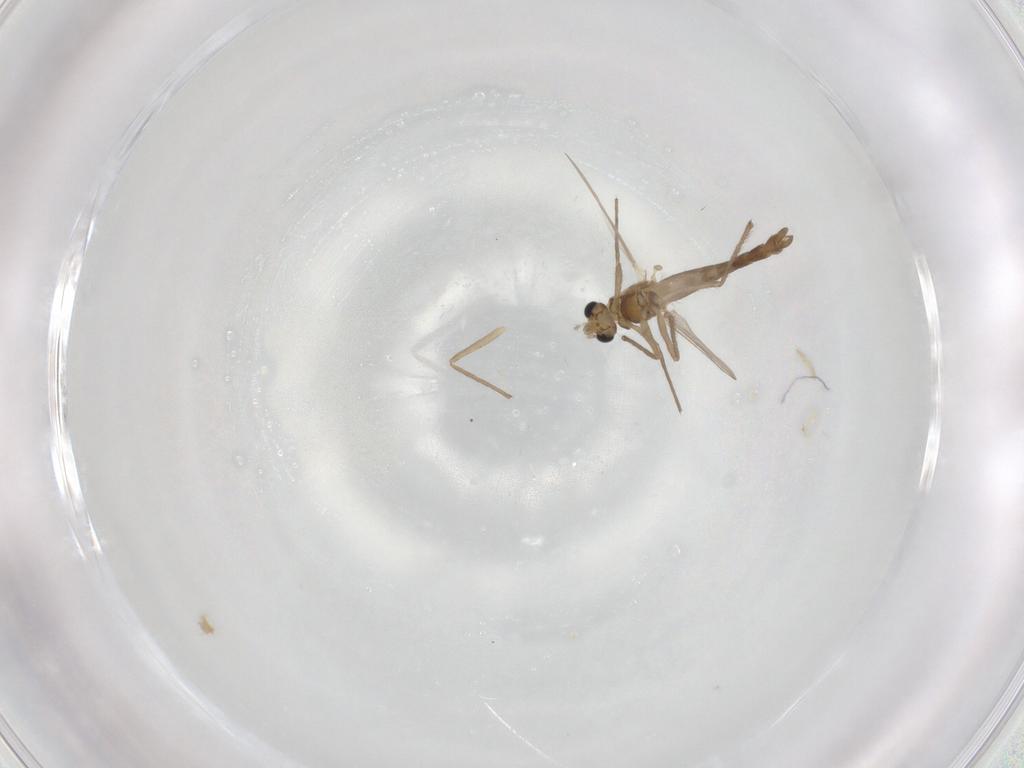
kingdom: Animalia
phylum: Arthropoda
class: Insecta
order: Diptera
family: Chironomidae
